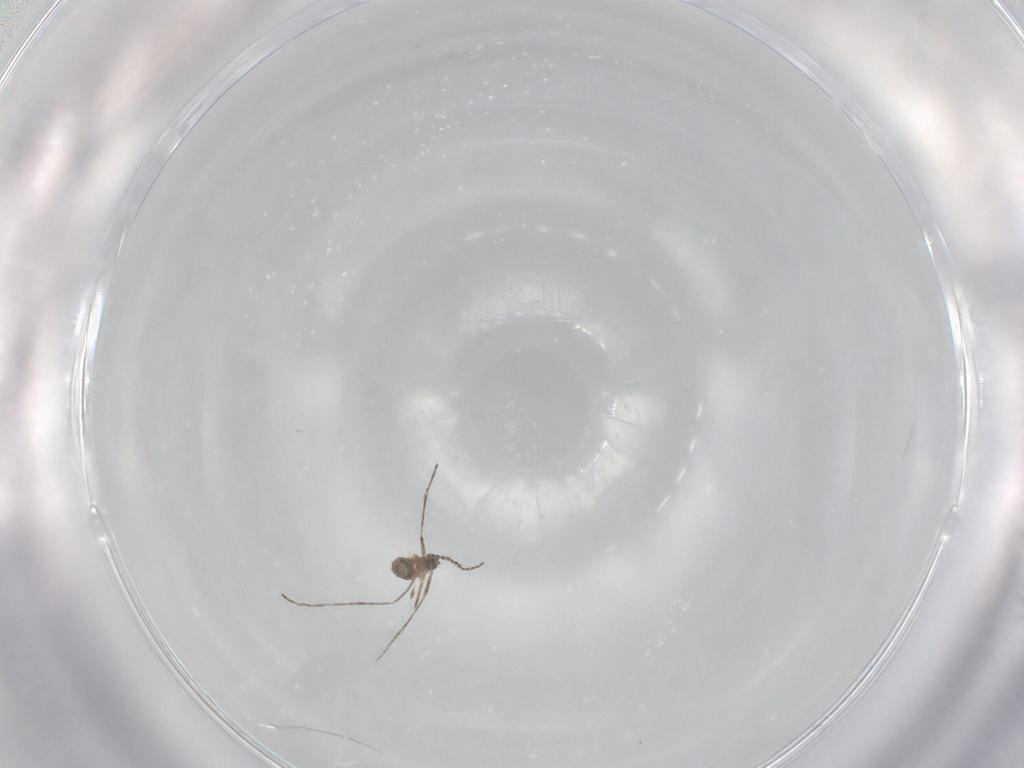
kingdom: Animalia
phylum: Arthropoda
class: Insecta
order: Diptera
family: Cecidomyiidae
